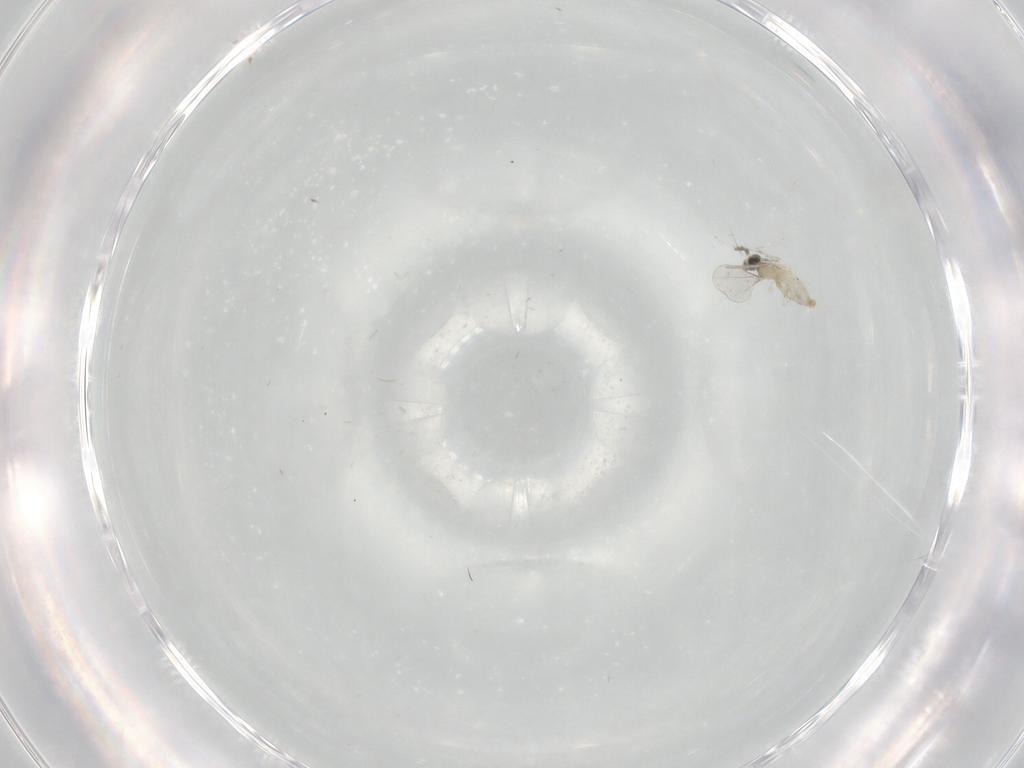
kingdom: Animalia
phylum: Arthropoda
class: Insecta
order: Diptera
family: Cecidomyiidae
